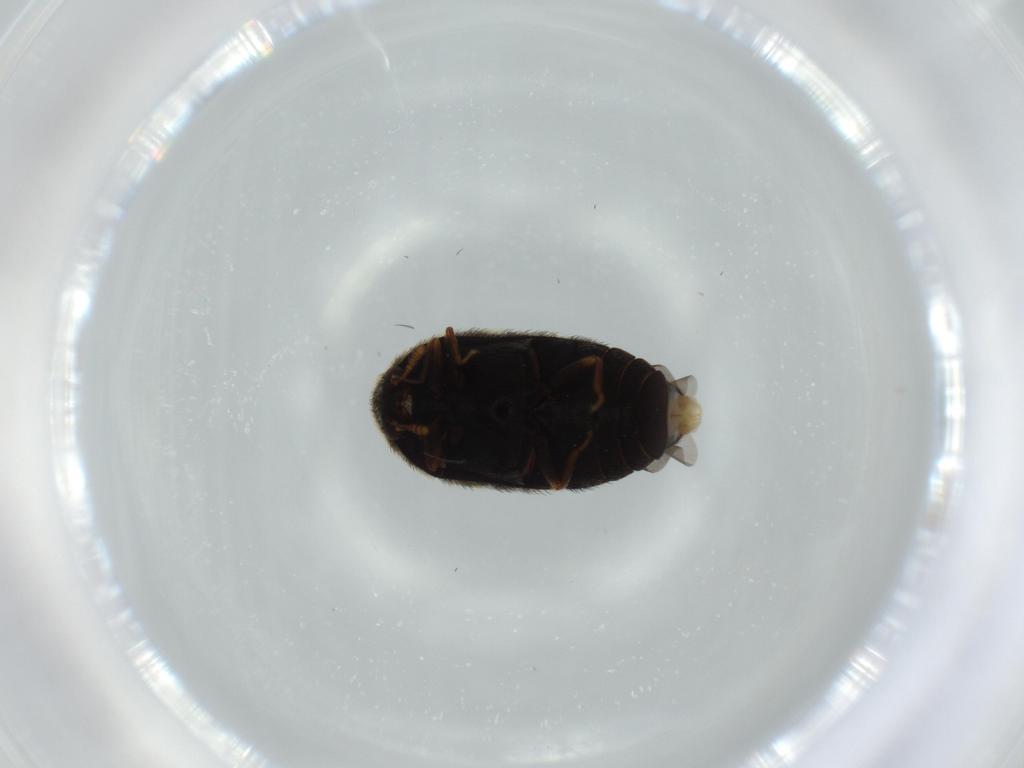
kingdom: Animalia
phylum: Arthropoda
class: Insecta
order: Coleoptera
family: Dermestidae
